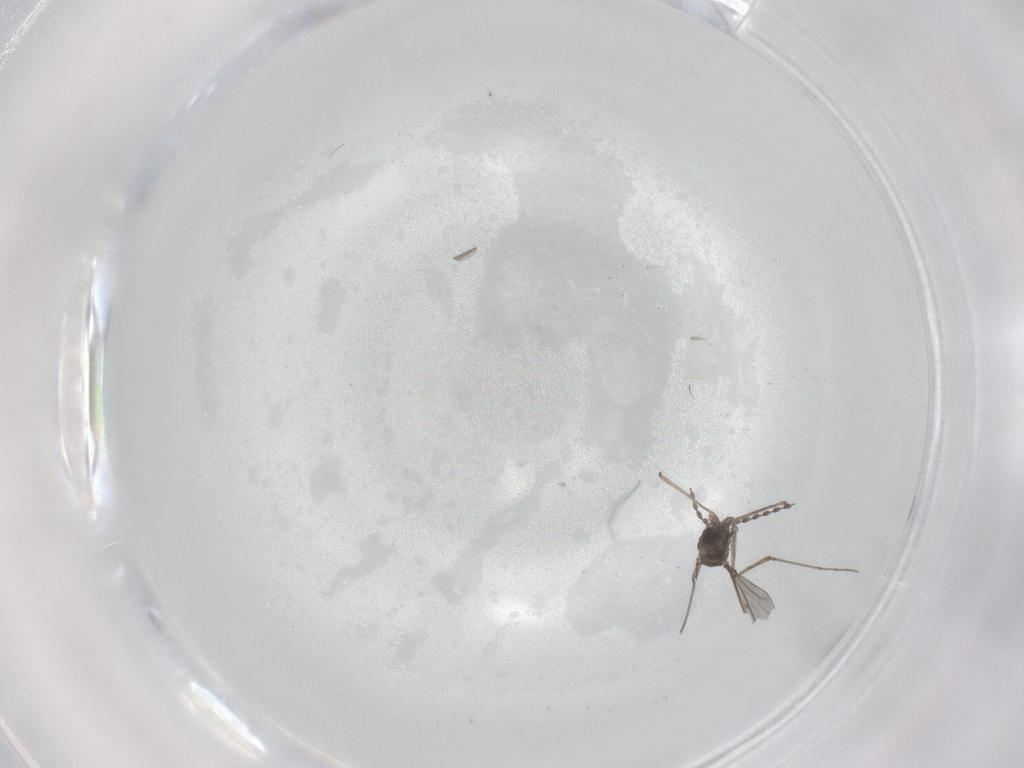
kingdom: Animalia
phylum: Arthropoda
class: Insecta
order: Diptera
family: Cecidomyiidae
